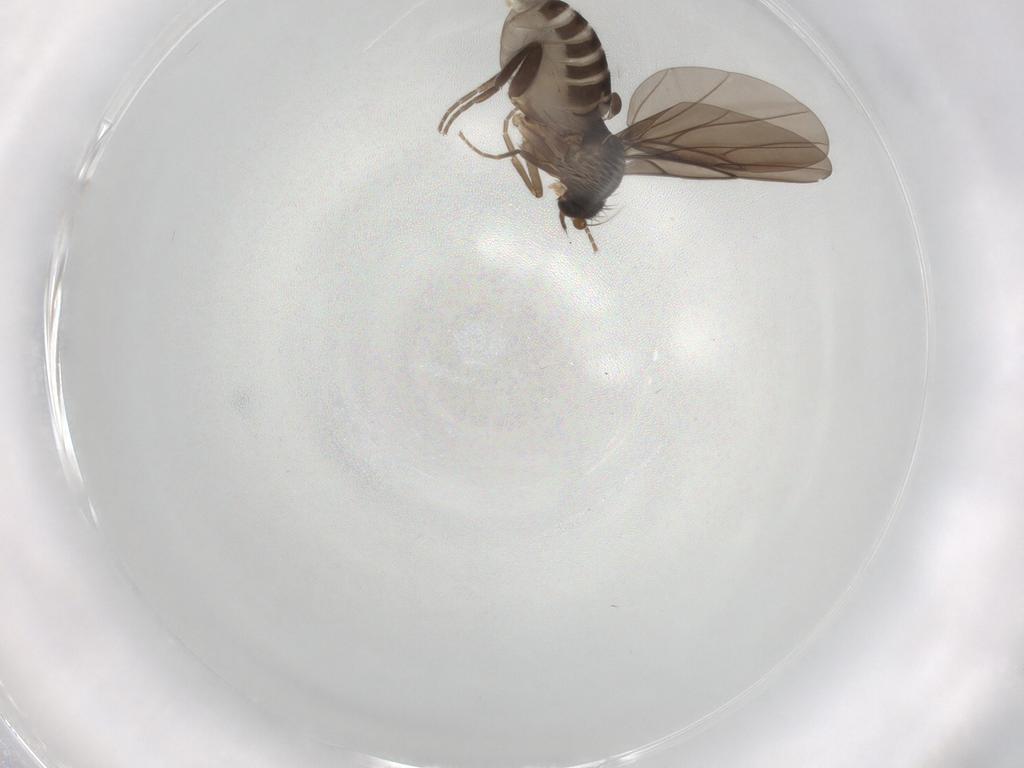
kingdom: Animalia
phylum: Arthropoda
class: Insecta
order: Diptera
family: Phoridae
